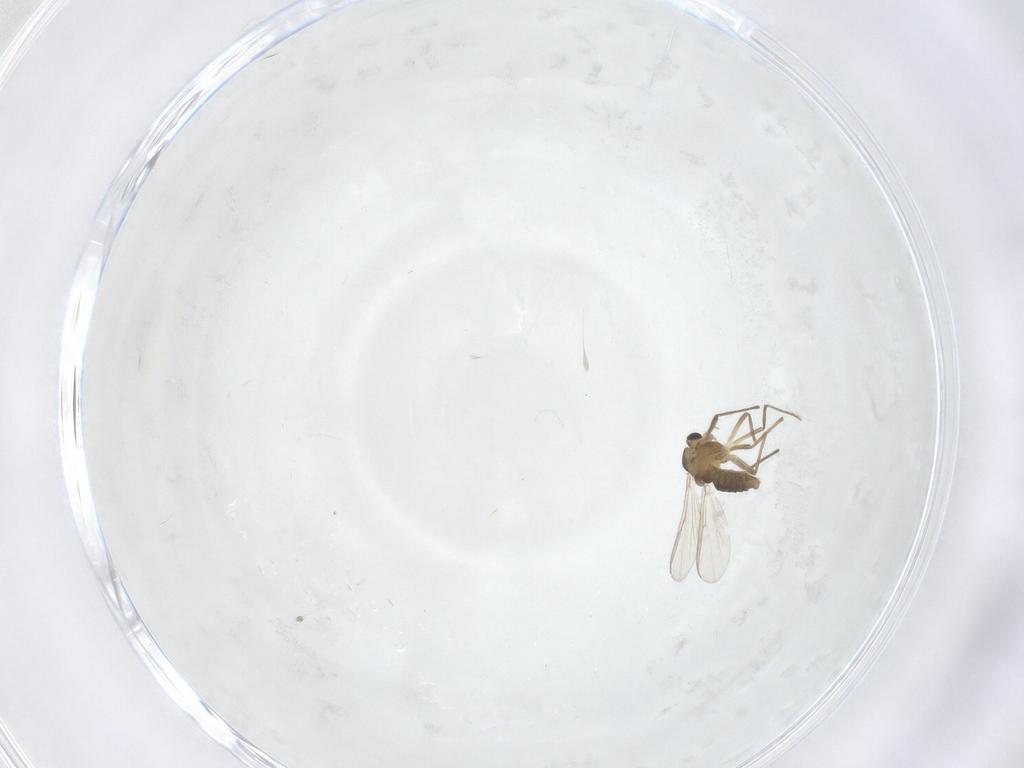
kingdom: Animalia
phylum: Arthropoda
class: Insecta
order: Diptera
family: Chironomidae
